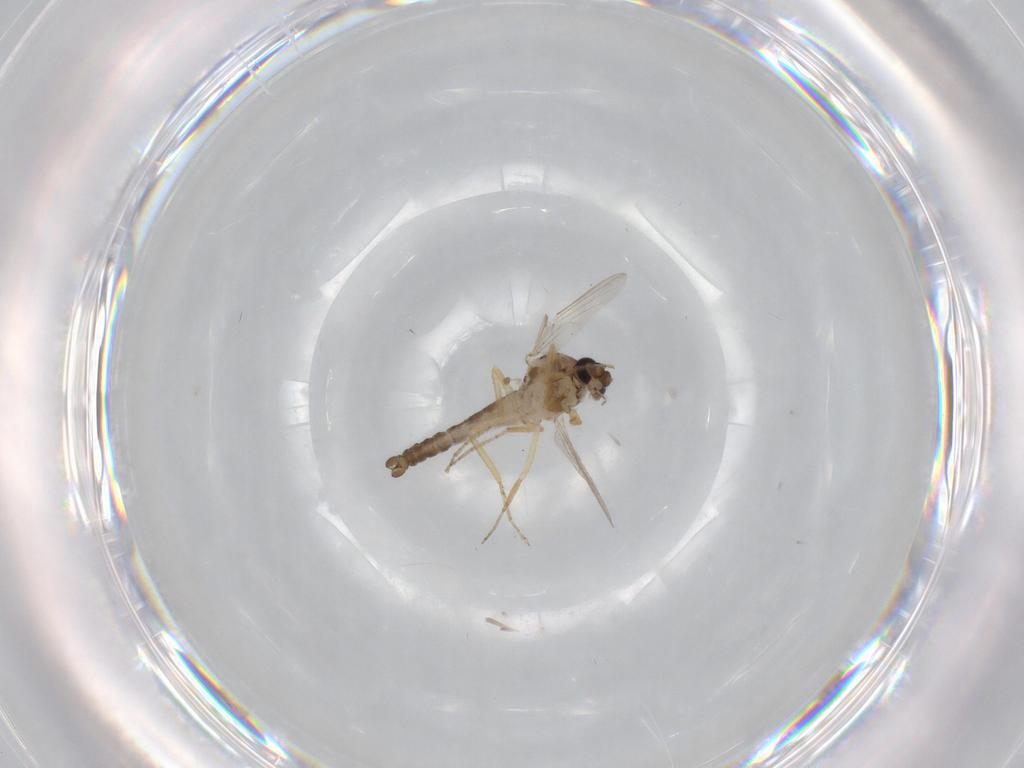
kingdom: Animalia
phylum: Arthropoda
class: Insecta
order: Diptera
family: Ceratopogonidae
